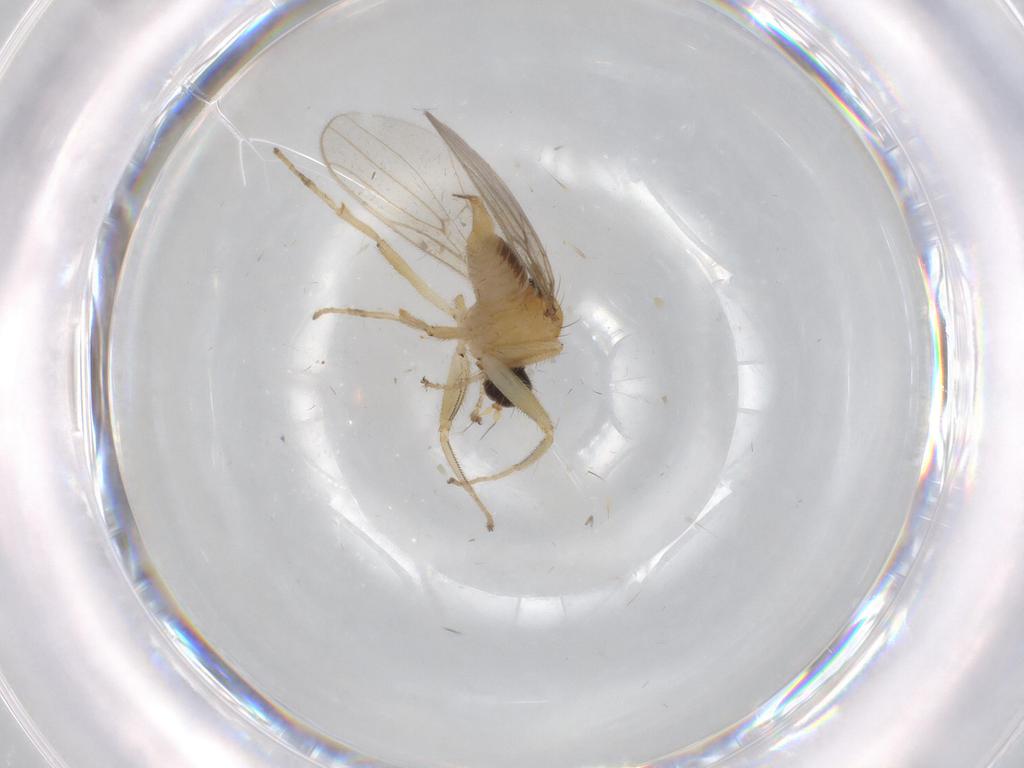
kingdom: Animalia
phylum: Arthropoda
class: Insecta
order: Diptera
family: Hybotidae
